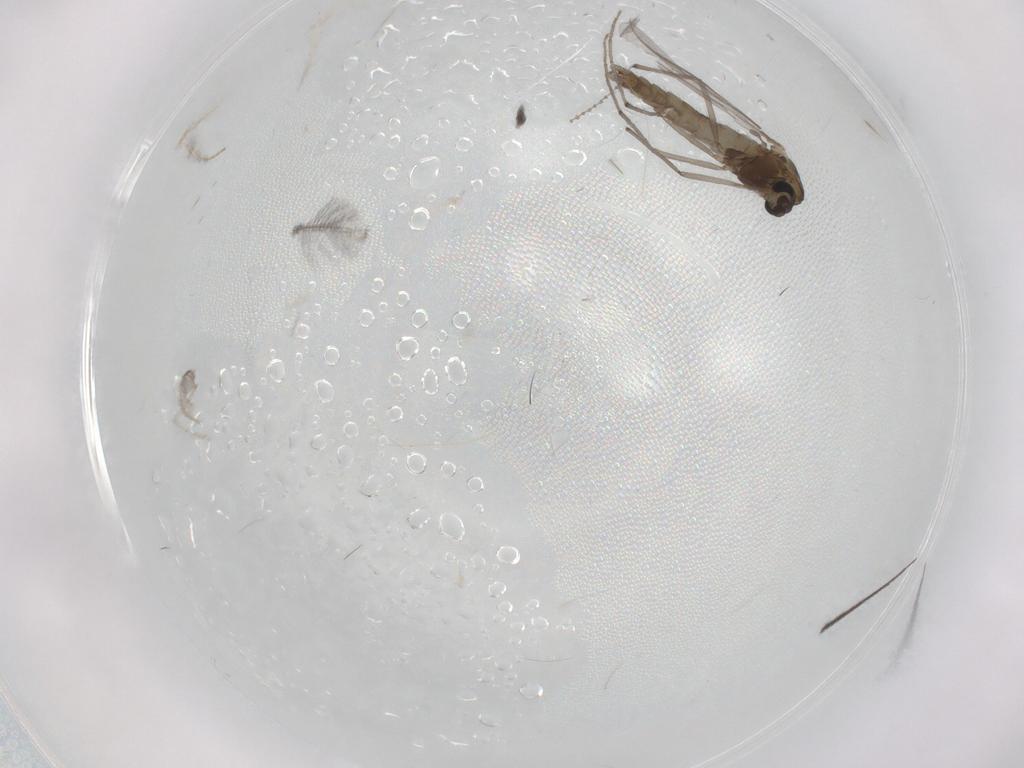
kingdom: Animalia
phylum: Arthropoda
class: Insecta
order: Diptera
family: Chironomidae
